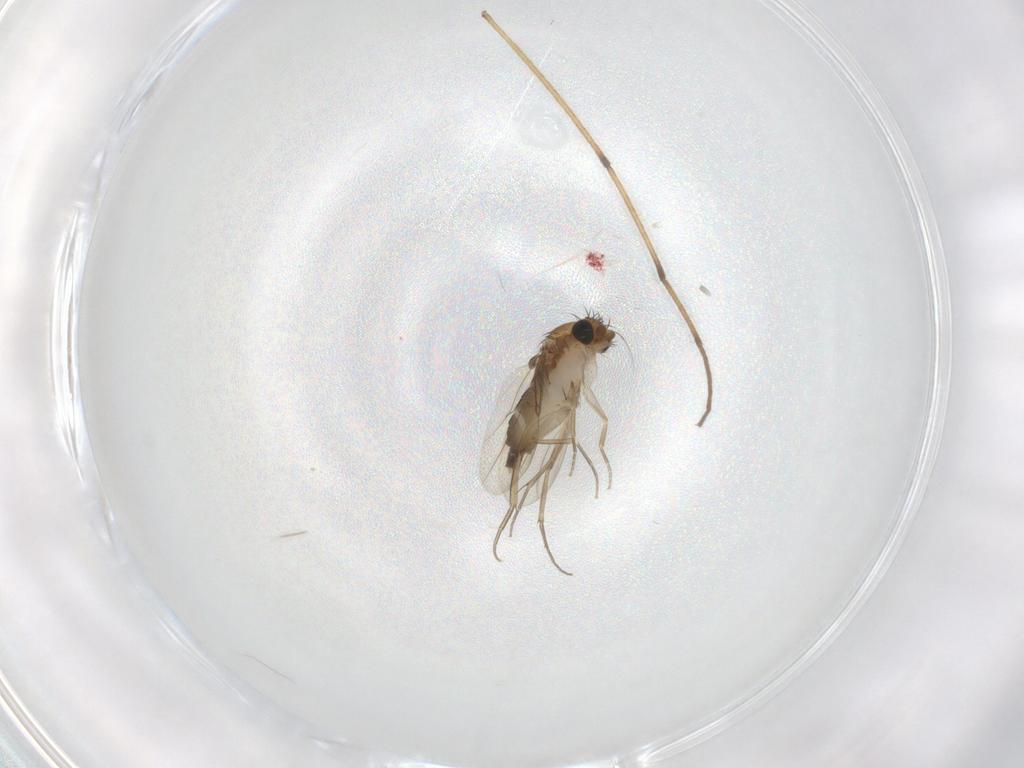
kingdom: Animalia
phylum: Arthropoda
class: Insecta
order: Diptera
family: Phoridae
